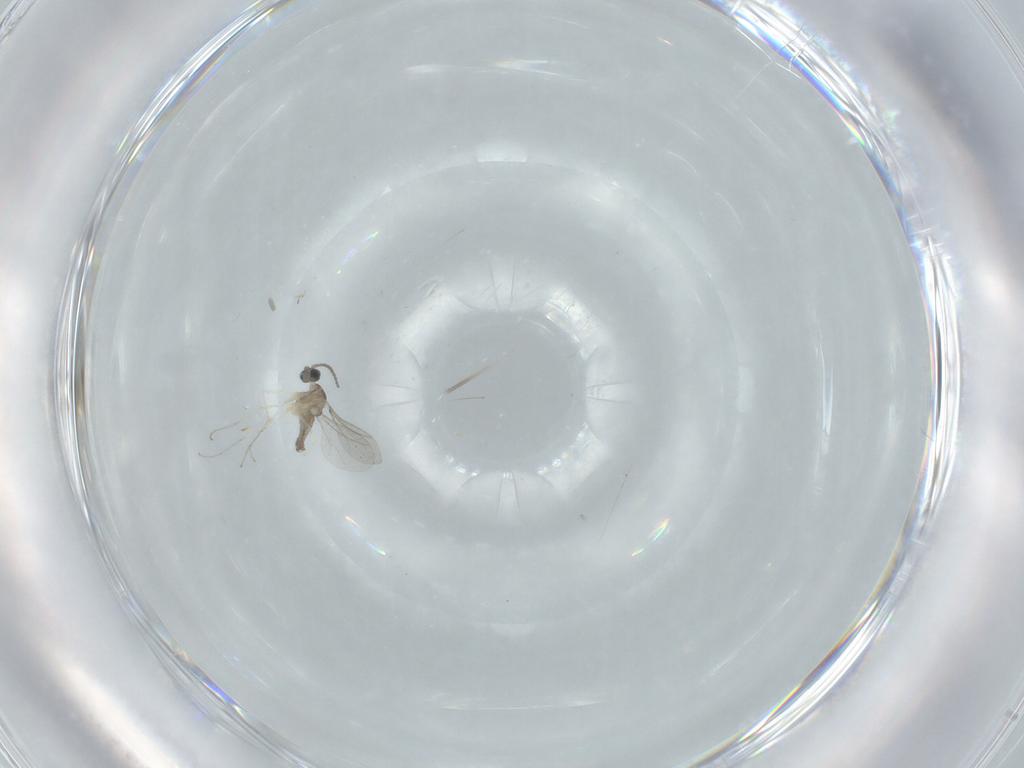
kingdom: Animalia
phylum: Arthropoda
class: Insecta
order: Diptera
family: Cecidomyiidae
